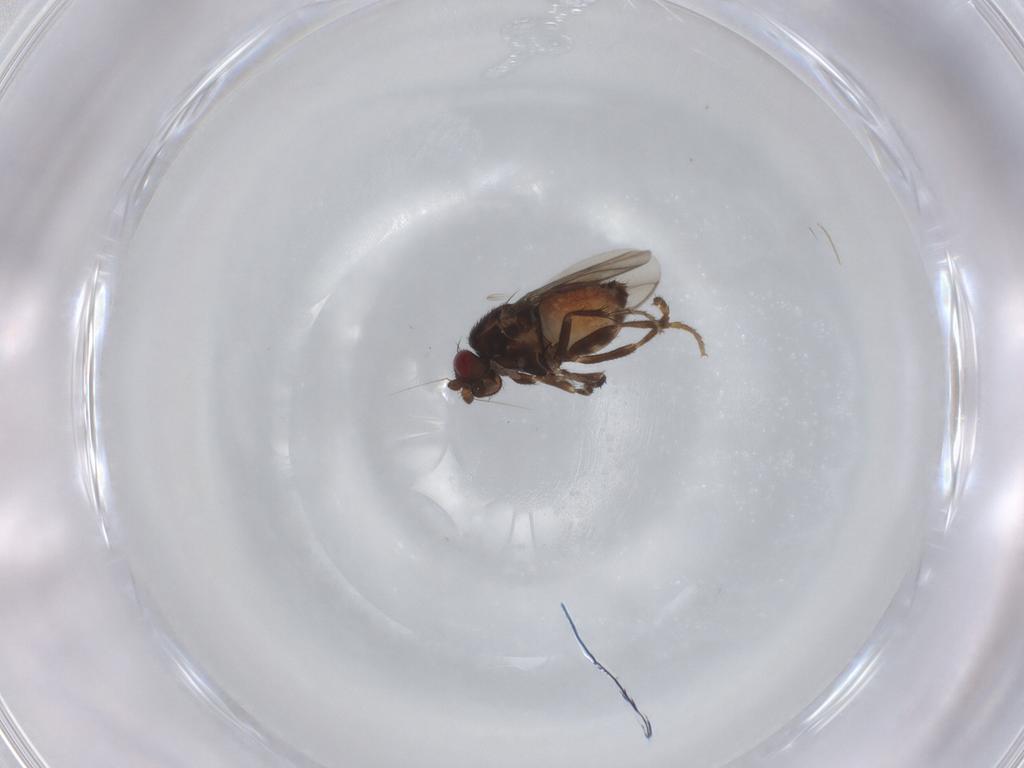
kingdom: Animalia
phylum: Arthropoda
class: Insecta
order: Diptera
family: Sphaeroceridae
